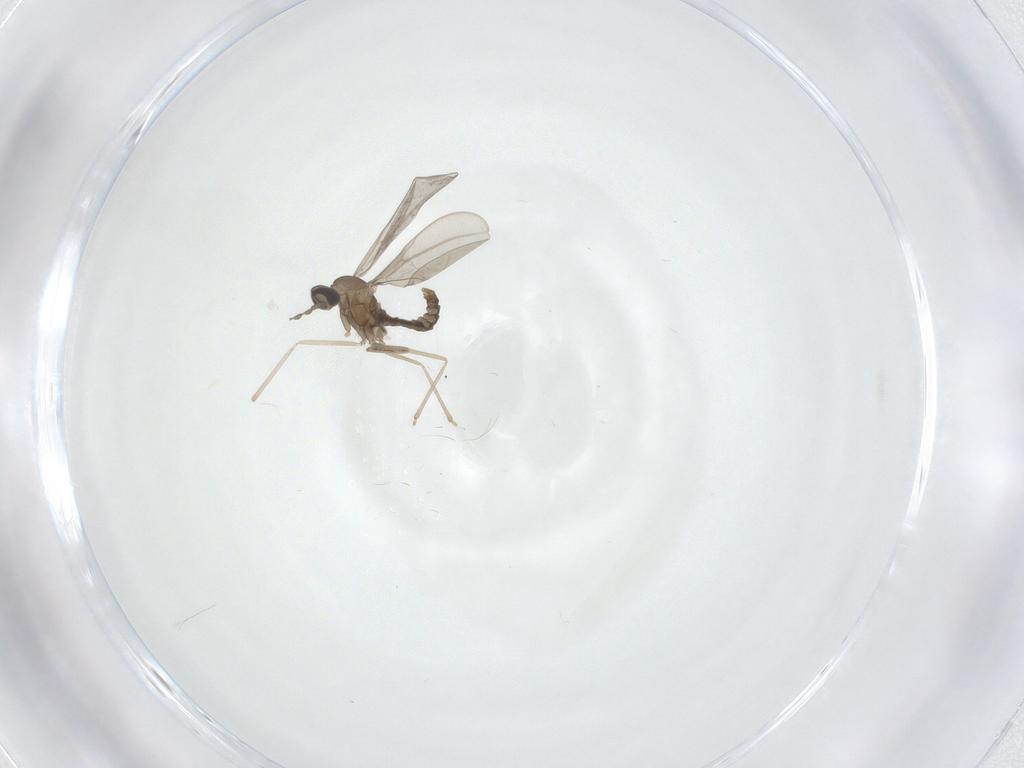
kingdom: Animalia
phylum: Arthropoda
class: Insecta
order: Diptera
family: Cecidomyiidae
